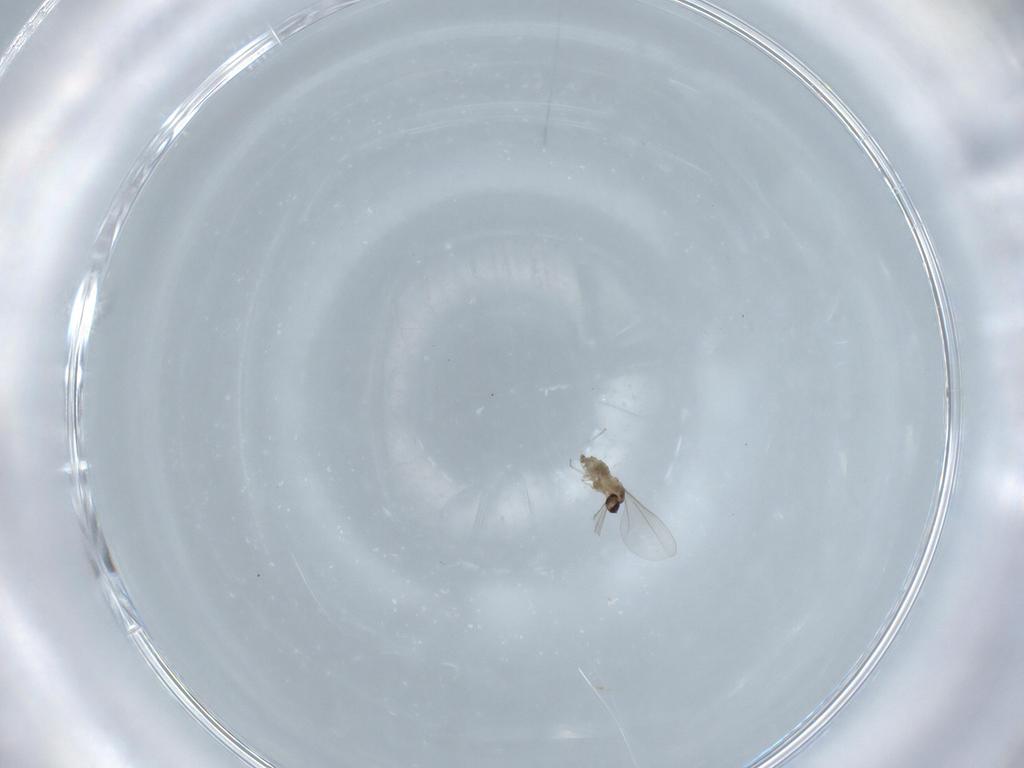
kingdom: Animalia
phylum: Arthropoda
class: Insecta
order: Diptera
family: Cecidomyiidae
